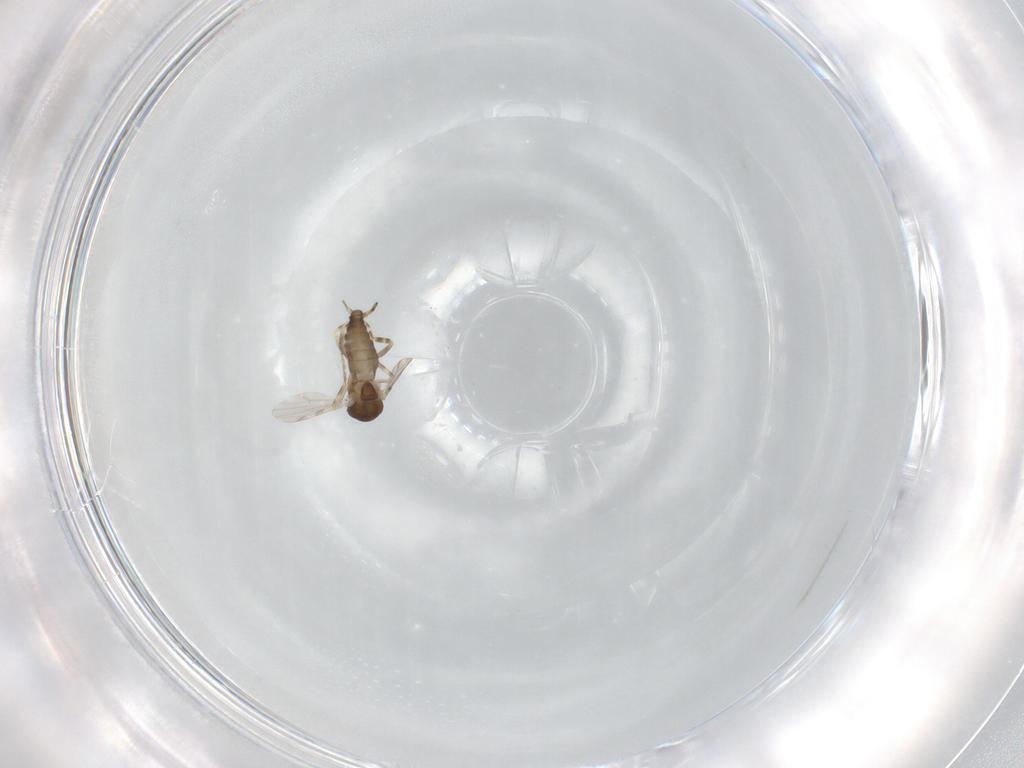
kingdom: Animalia
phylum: Arthropoda
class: Insecta
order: Diptera
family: Ceratopogonidae
